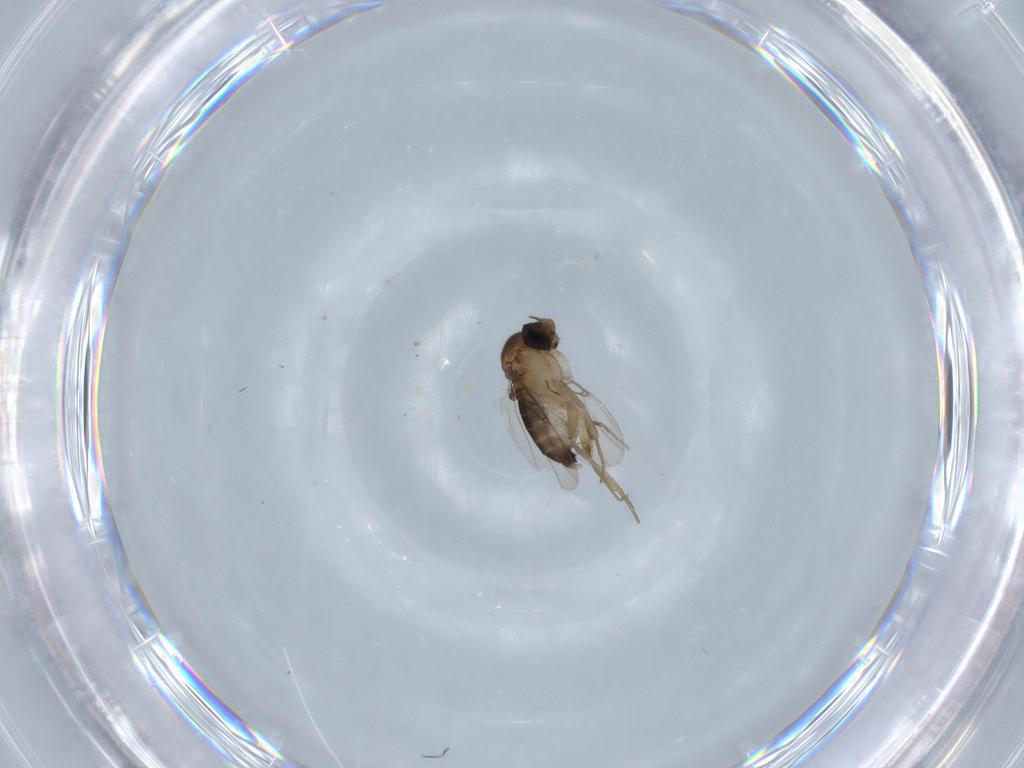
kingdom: Animalia
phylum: Arthropoda
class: Insecta
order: Diptera
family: Phoridae
